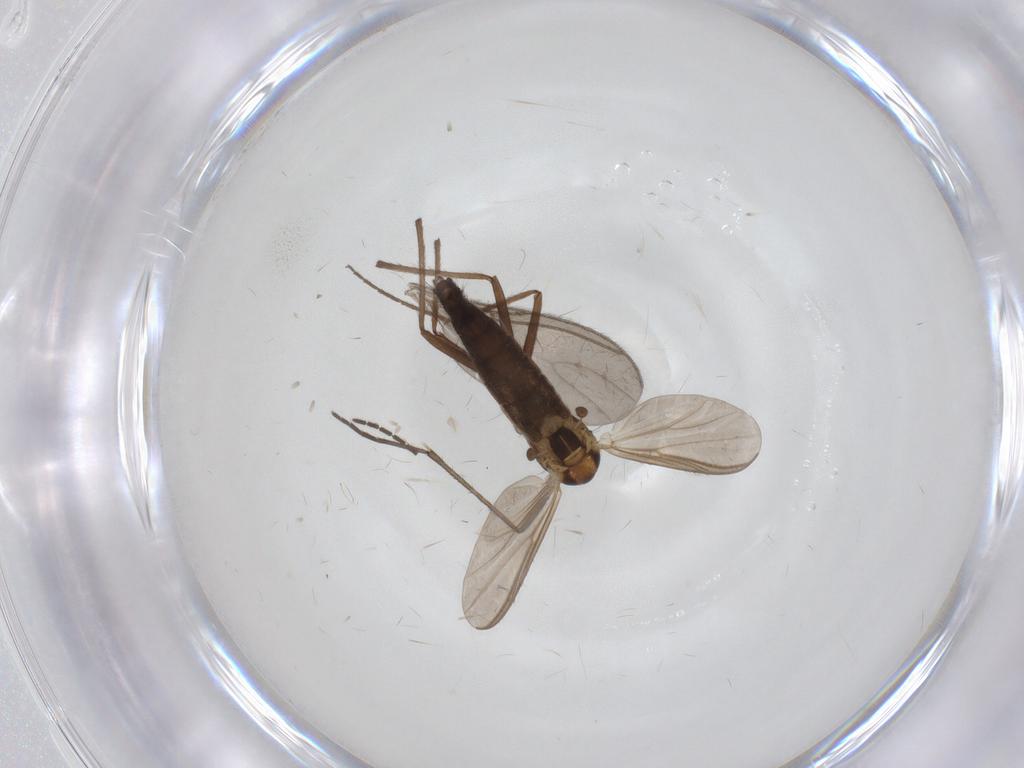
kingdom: Animalia
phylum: Arthropoda
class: Insecta
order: Diptera
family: Chironomidae
